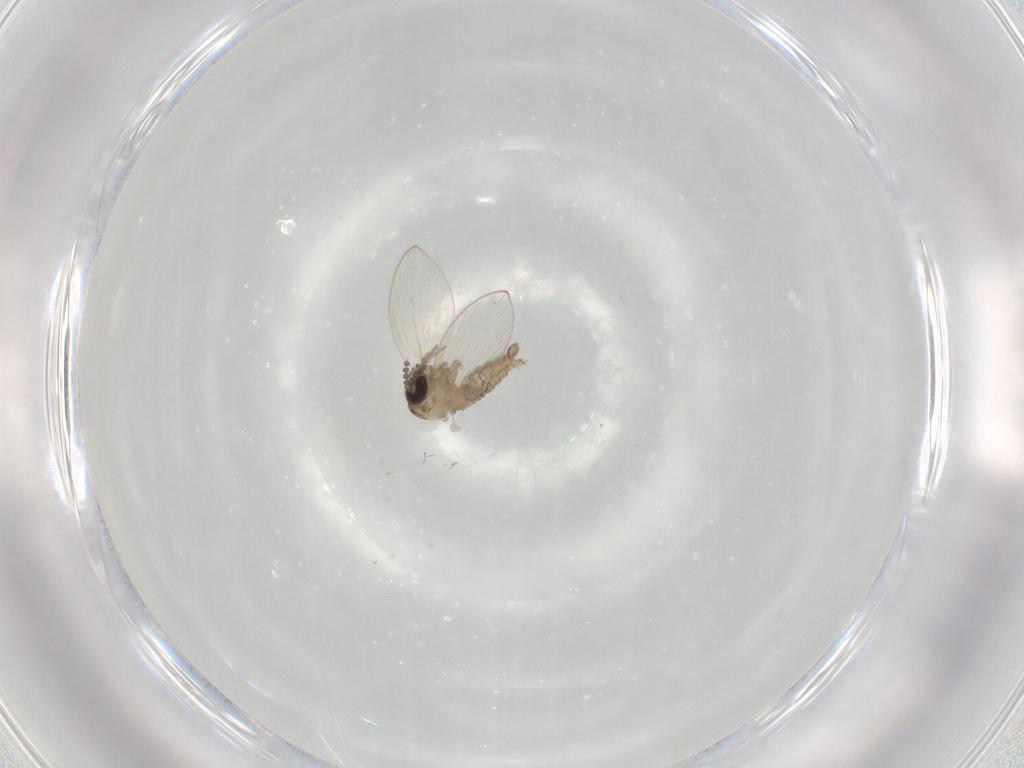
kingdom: Animalia
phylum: Arthropoda
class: Insecta
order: Diptera
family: Psychodidae
